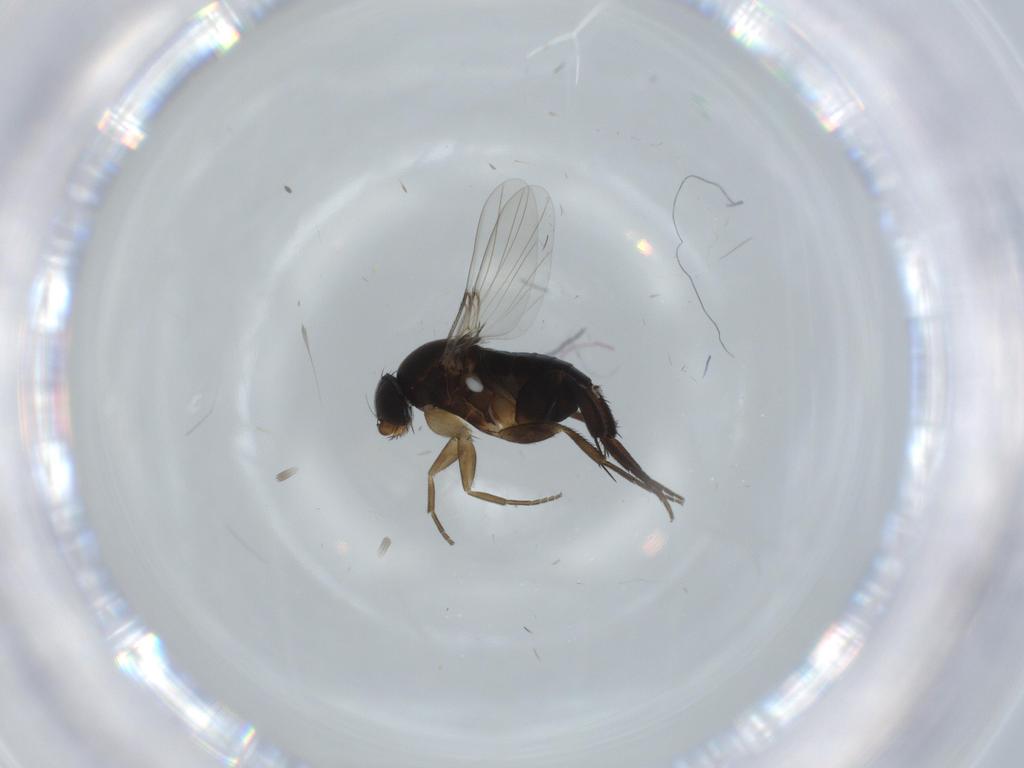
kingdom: Animalia
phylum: Arthropoda
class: Insecta
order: Diptera
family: Phoridae
